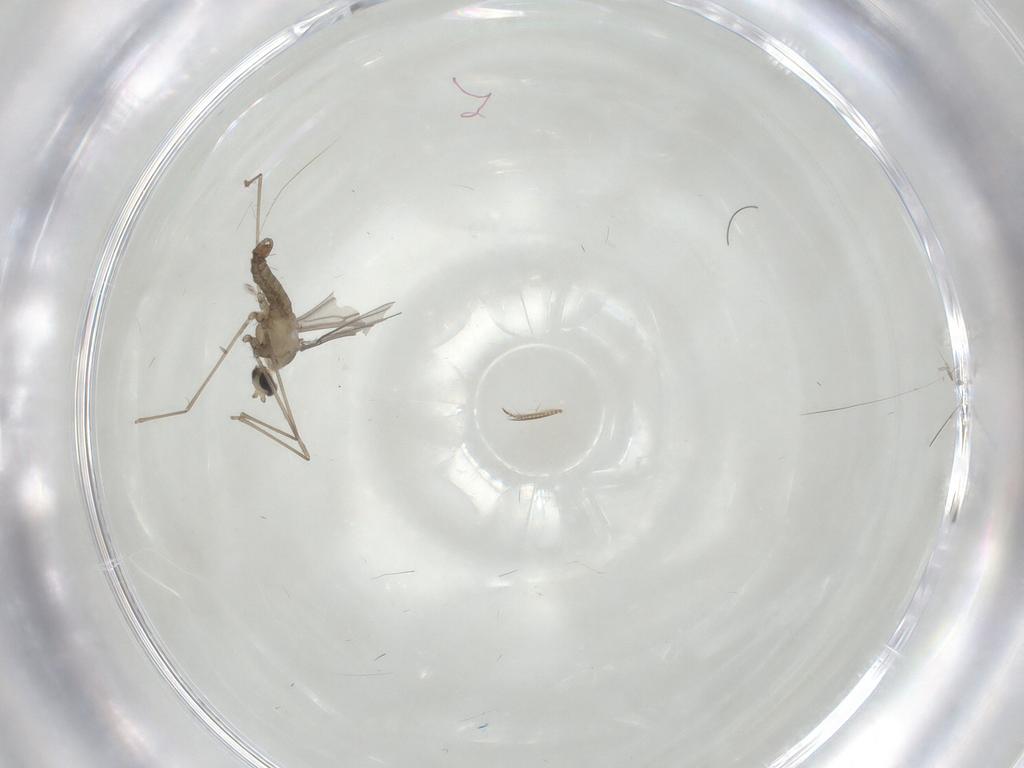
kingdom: Animalia
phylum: Arthropoda
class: Insecta
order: Diptera
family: Cecidomyiidae
